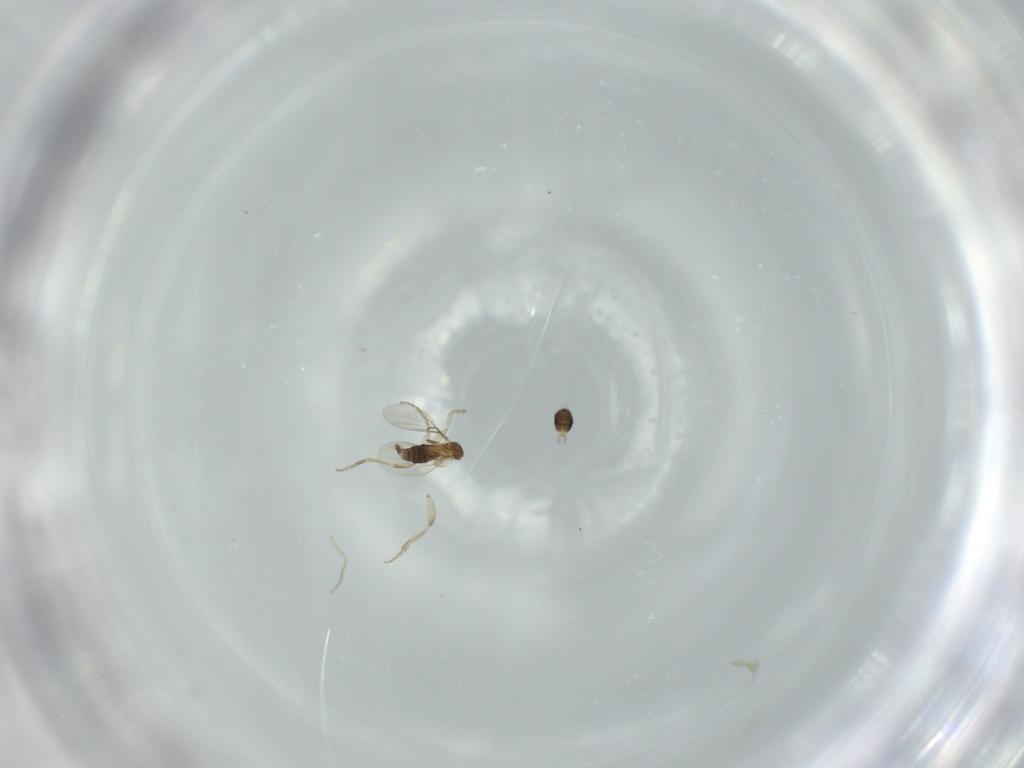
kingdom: Animalia
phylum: Arthropoda
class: Insecta
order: Diptera
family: Phoridae
